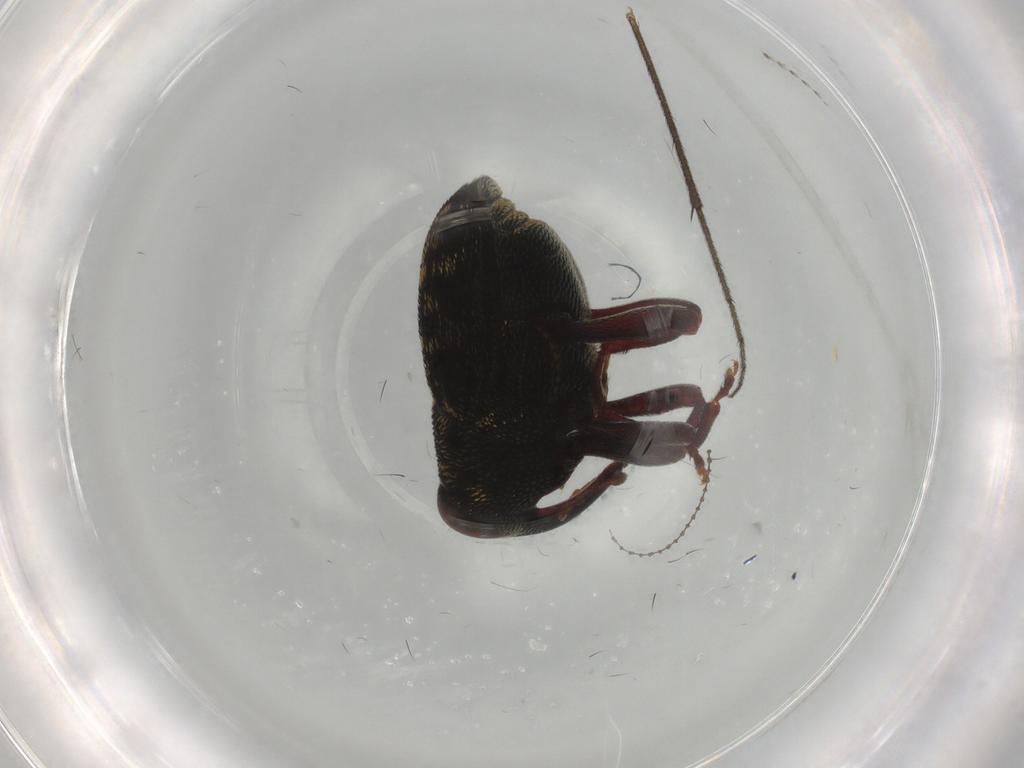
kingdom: Animalia
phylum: Arthropoda
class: Insecta
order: Coleoptera
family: Curculionidae
